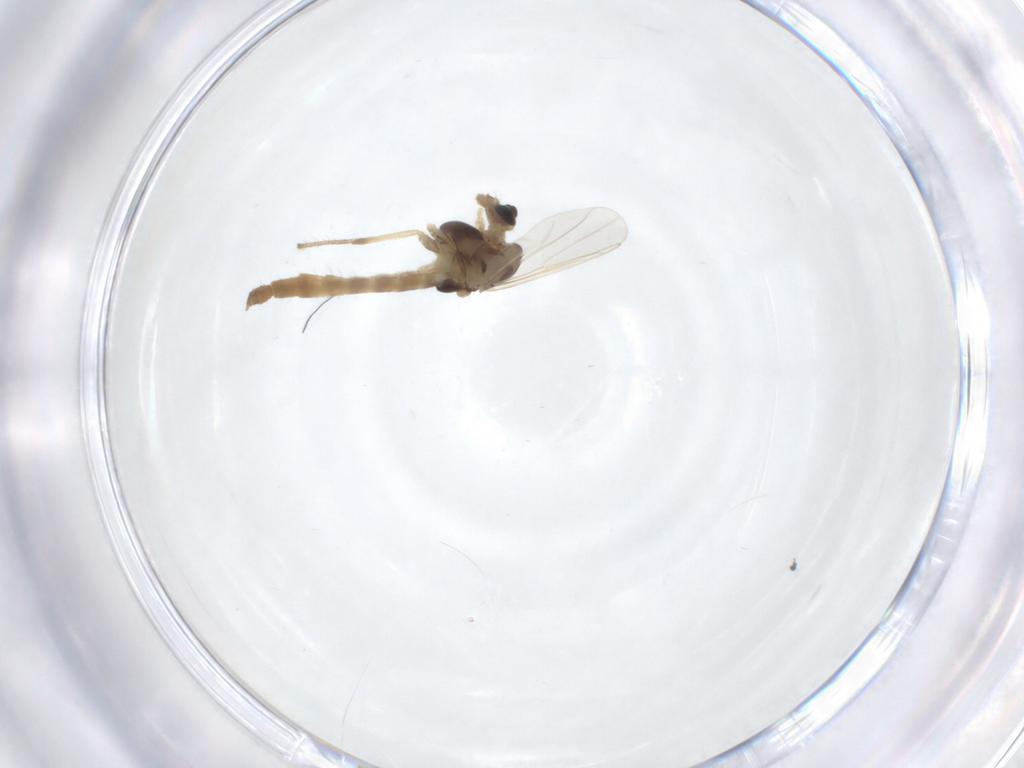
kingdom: Animalia
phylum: Arthropoda
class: Insecta
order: Diptera
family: Chironomidae
